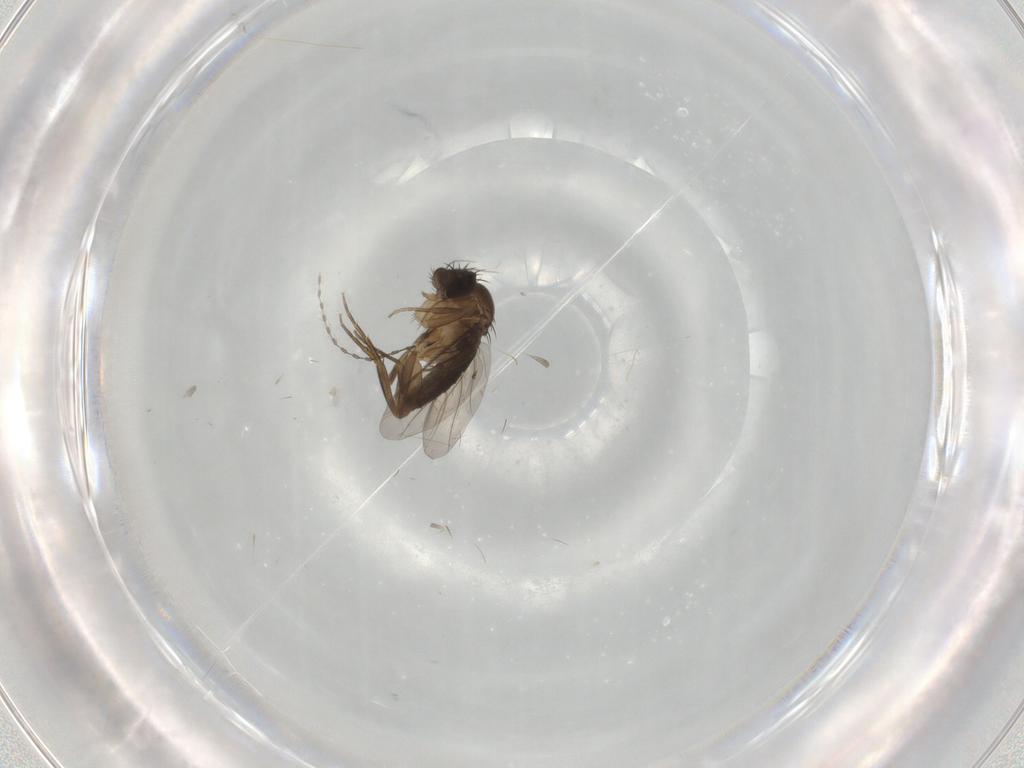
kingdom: Animalia
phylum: Arthropoda
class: Insecta
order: Diptera
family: Phoridae
